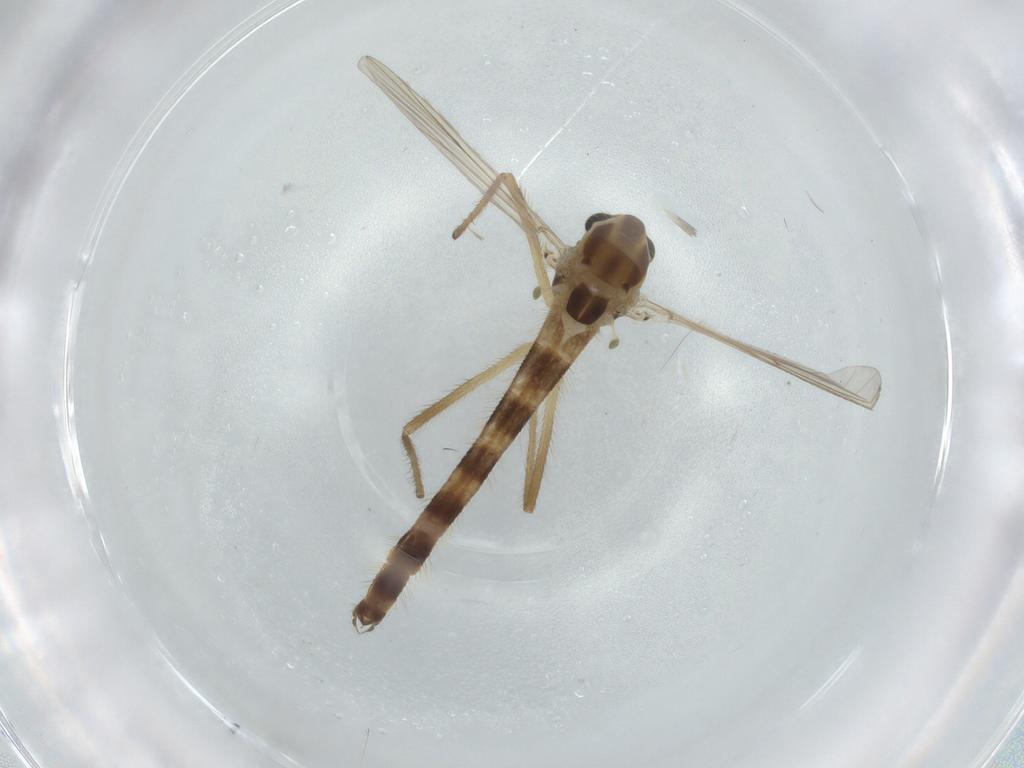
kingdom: Animalia
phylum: Arthropoda
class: Insecta
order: Diptera
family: Chironomidae
